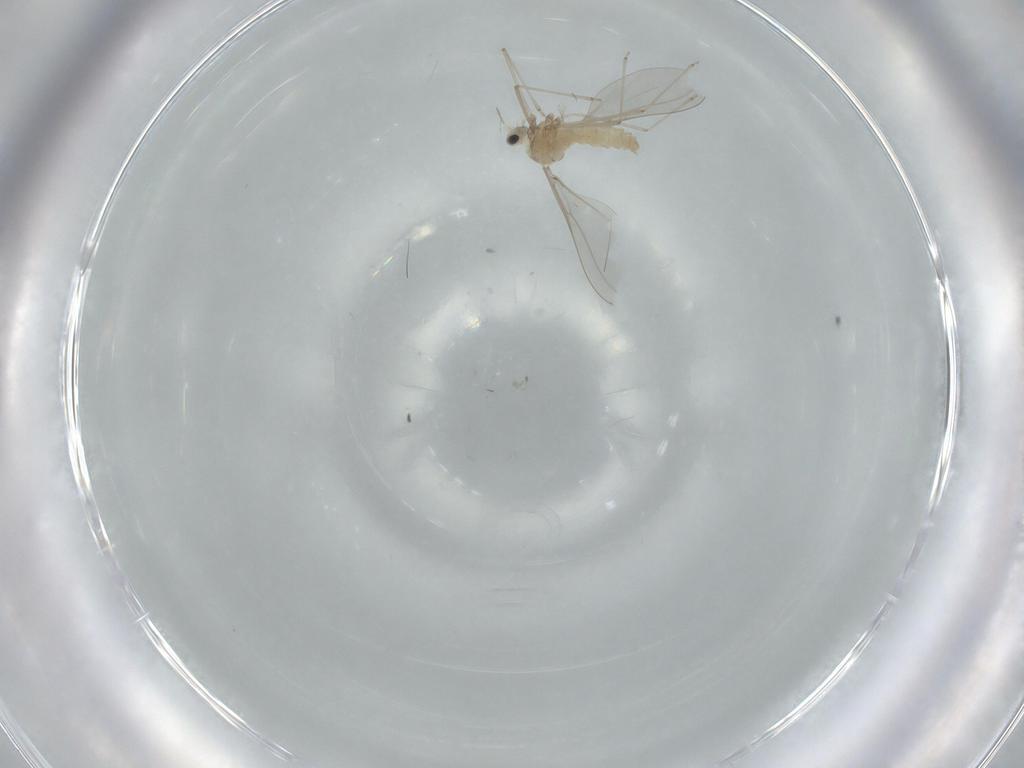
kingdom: Animalia
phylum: Arthropoda
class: Insecta
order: Diptera
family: Cecidomyiidae
